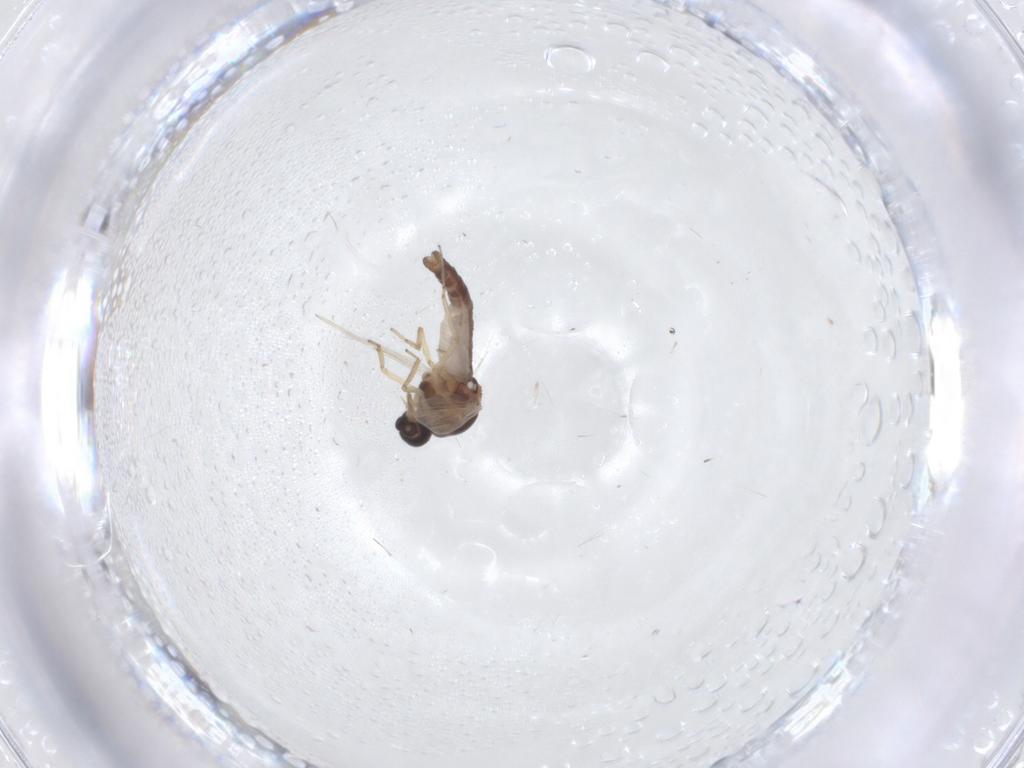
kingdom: Animalia
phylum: Arthropoda
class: Insecta
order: Diptera
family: Ceratopogonidae
